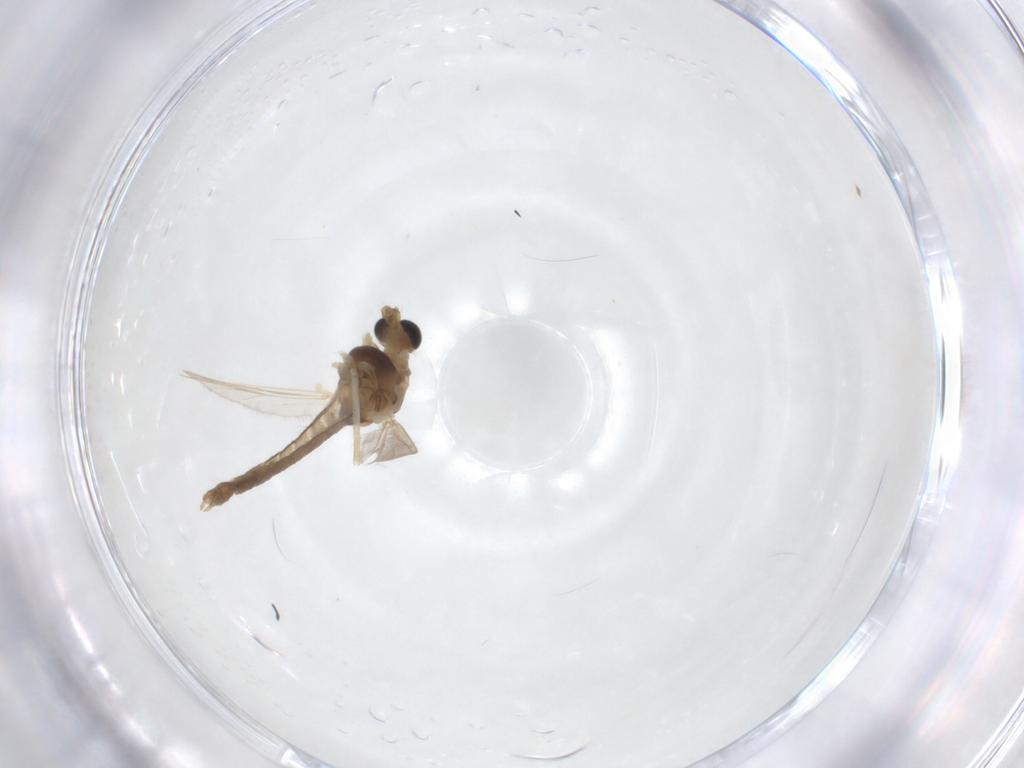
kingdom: Animalia
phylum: Arthropoda
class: Insecta
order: Diptera
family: Chironomidae
